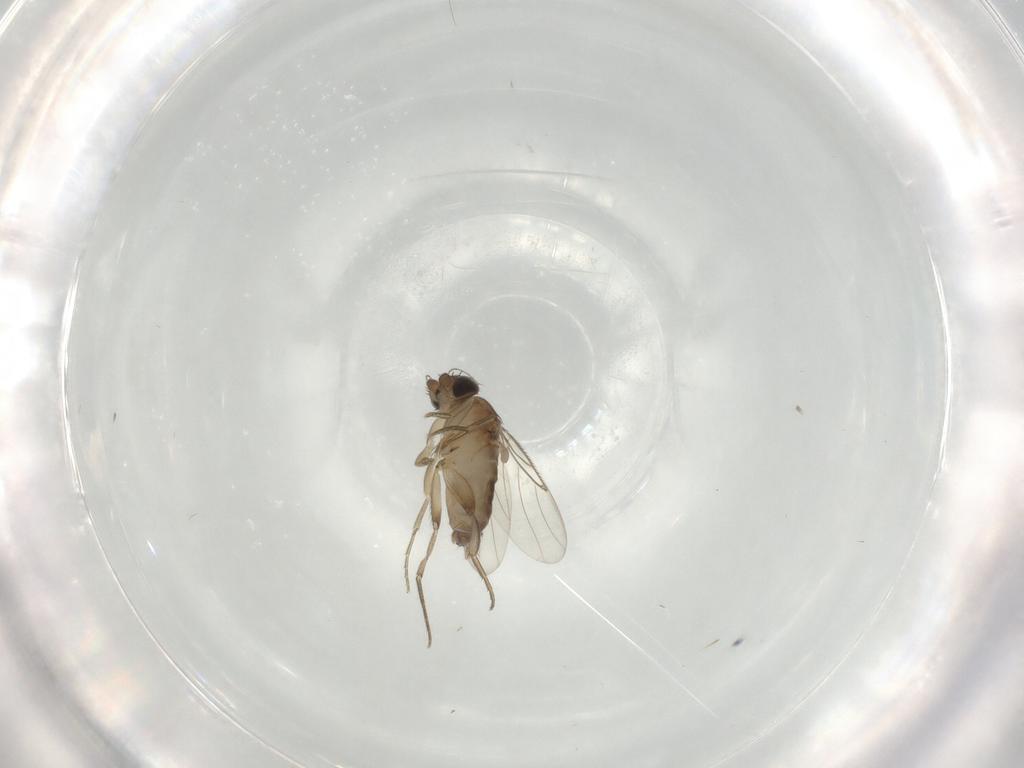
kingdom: Animalia
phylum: Arthropoda
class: Insecta
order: Diptera
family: Phoridae
